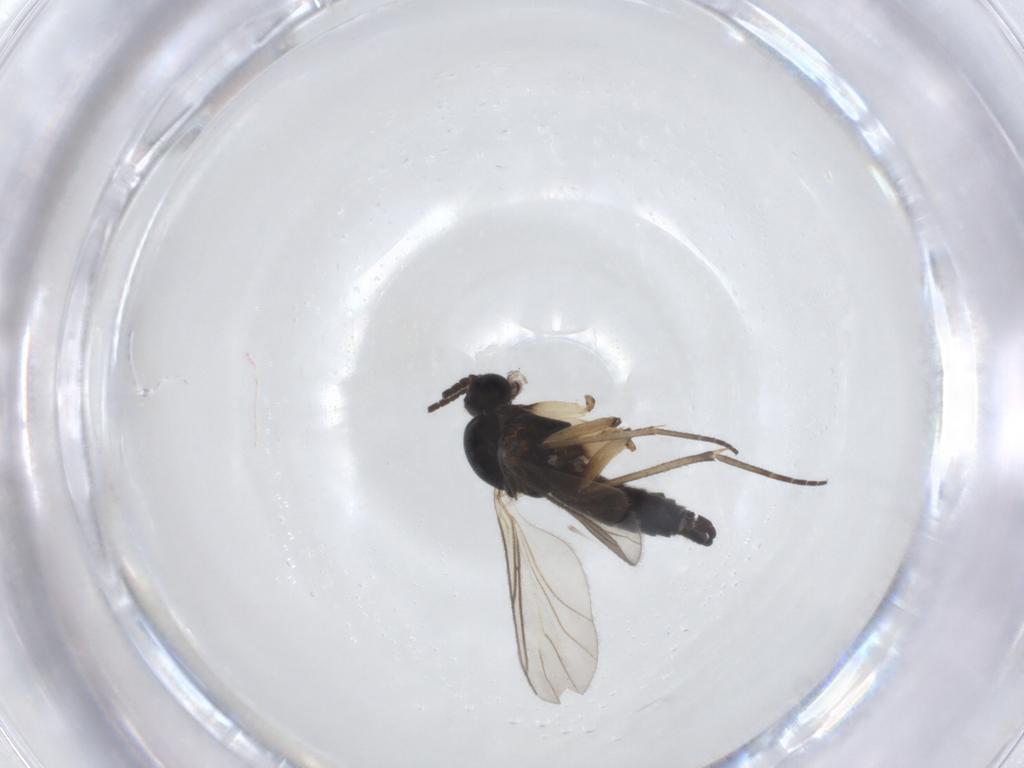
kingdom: Animalia
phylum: Arthropoda
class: Insecta
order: Diptera
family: Sciaridae
